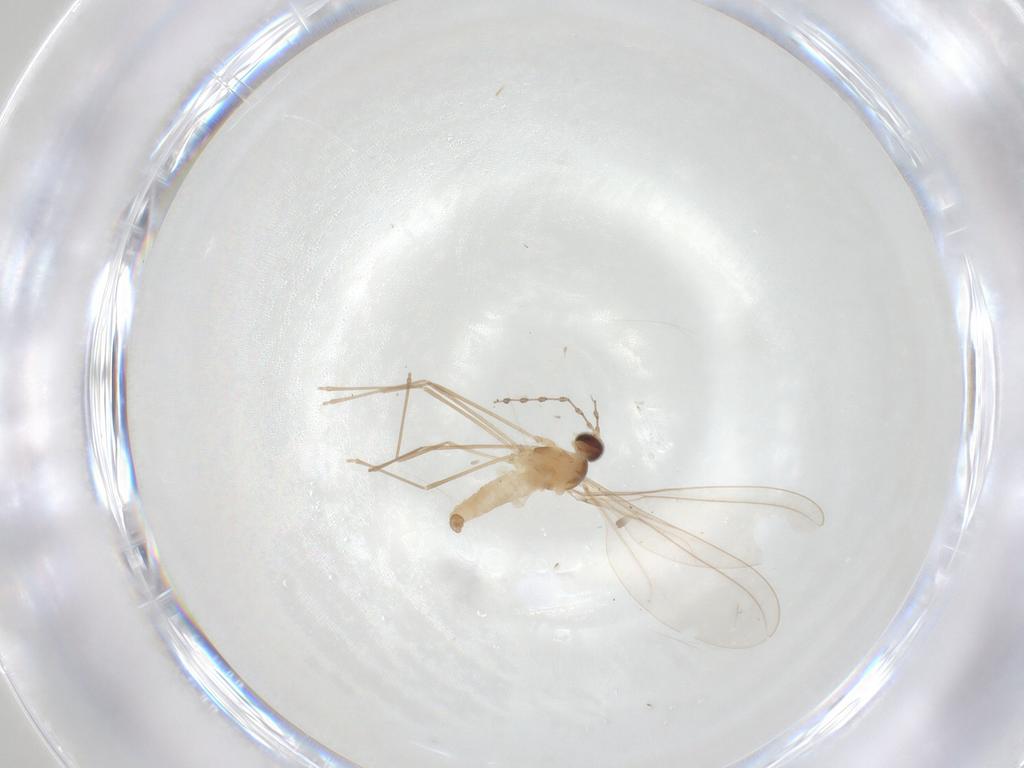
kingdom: Animalia
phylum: Arthropoda
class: Insecta
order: Diptera
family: Cecidomyiidae
